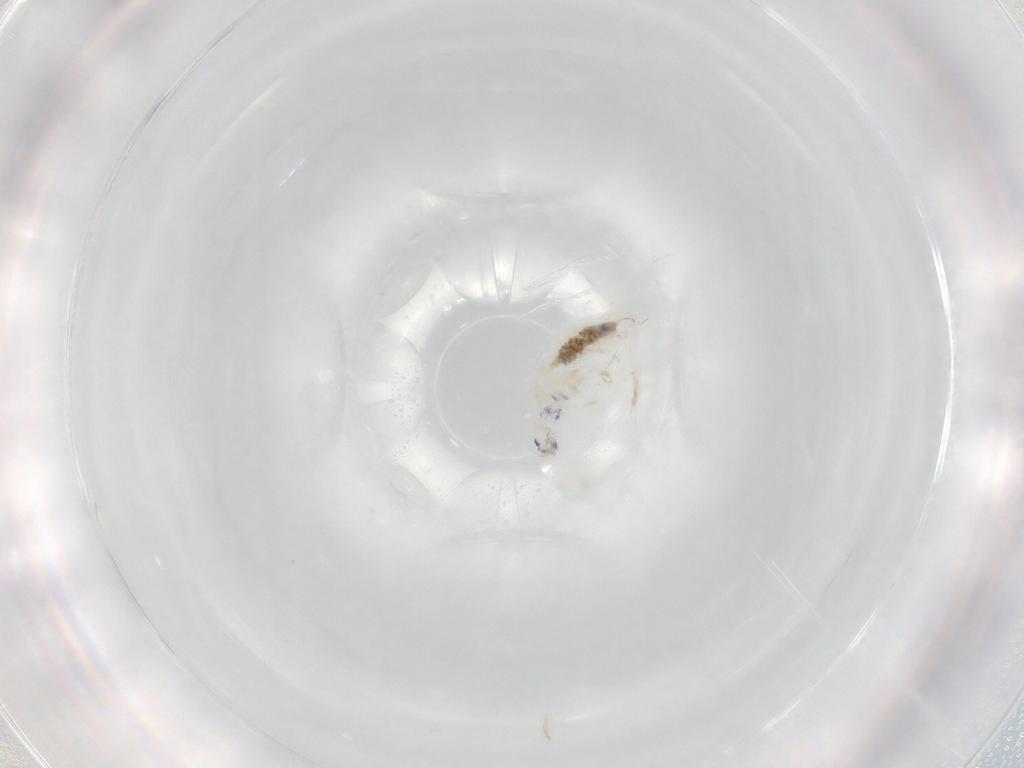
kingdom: Animalia
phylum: Arthropoda
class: Collembola
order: Entomobryomorpha
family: Entomobryidae
